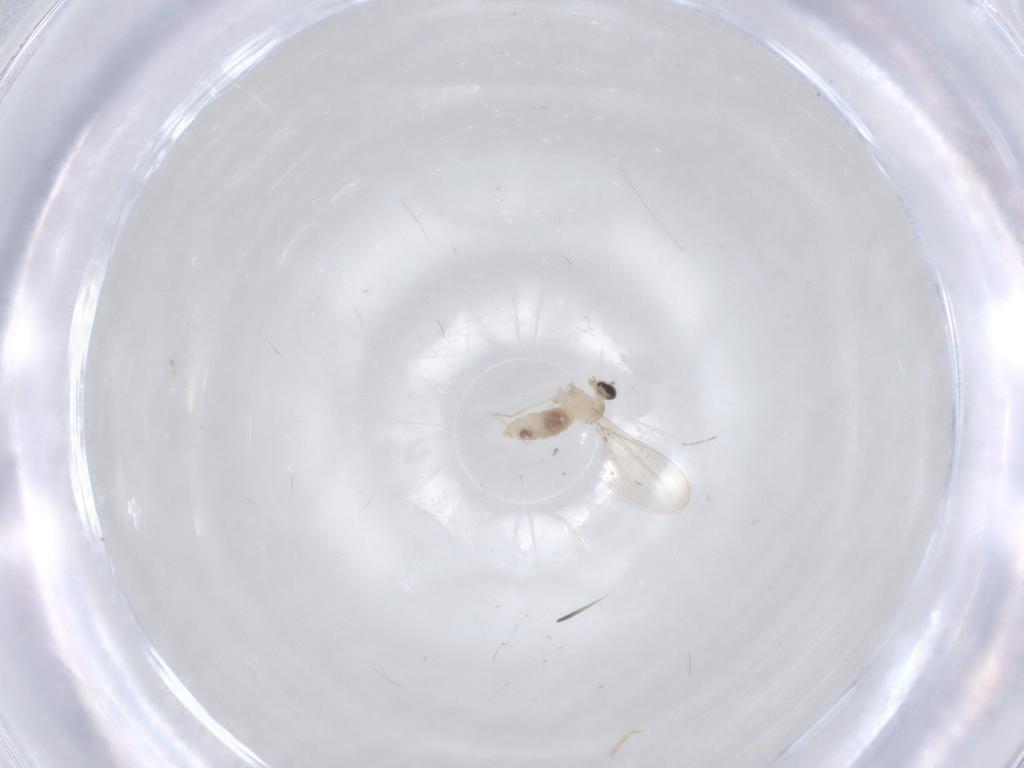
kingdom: Animalia
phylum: Arthropoda
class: Insecta
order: Diptera
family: Cecidomyiidae
